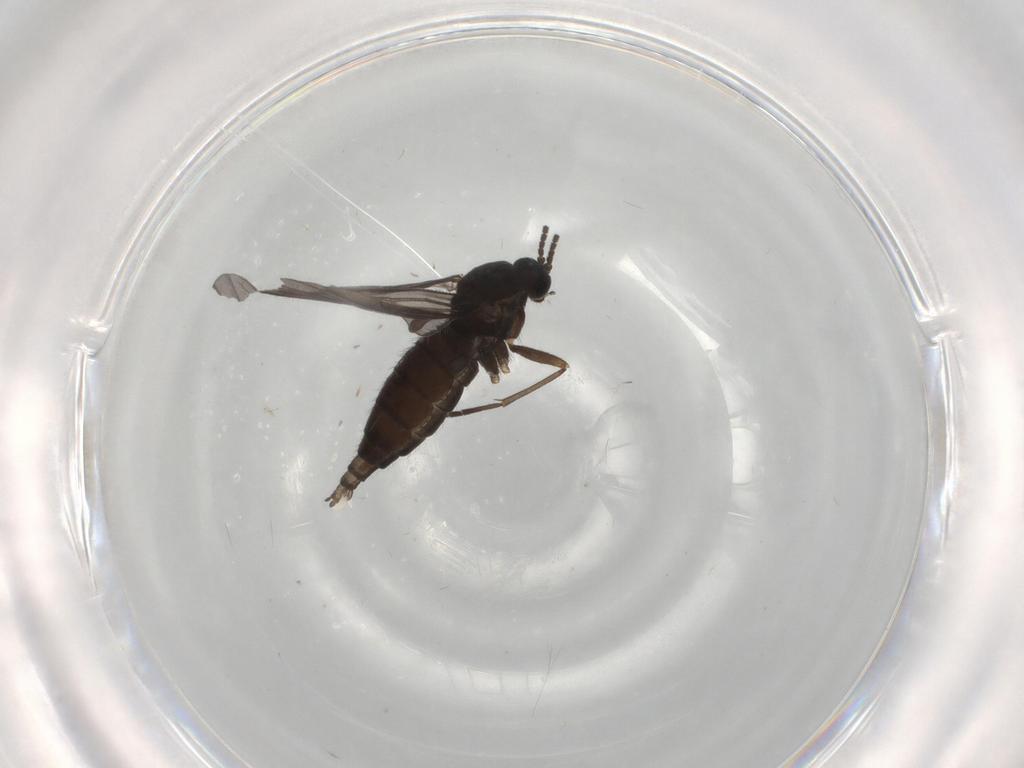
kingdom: Animalia
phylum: Arthropoda
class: Insecta
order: Diptera
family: Sciaridae
